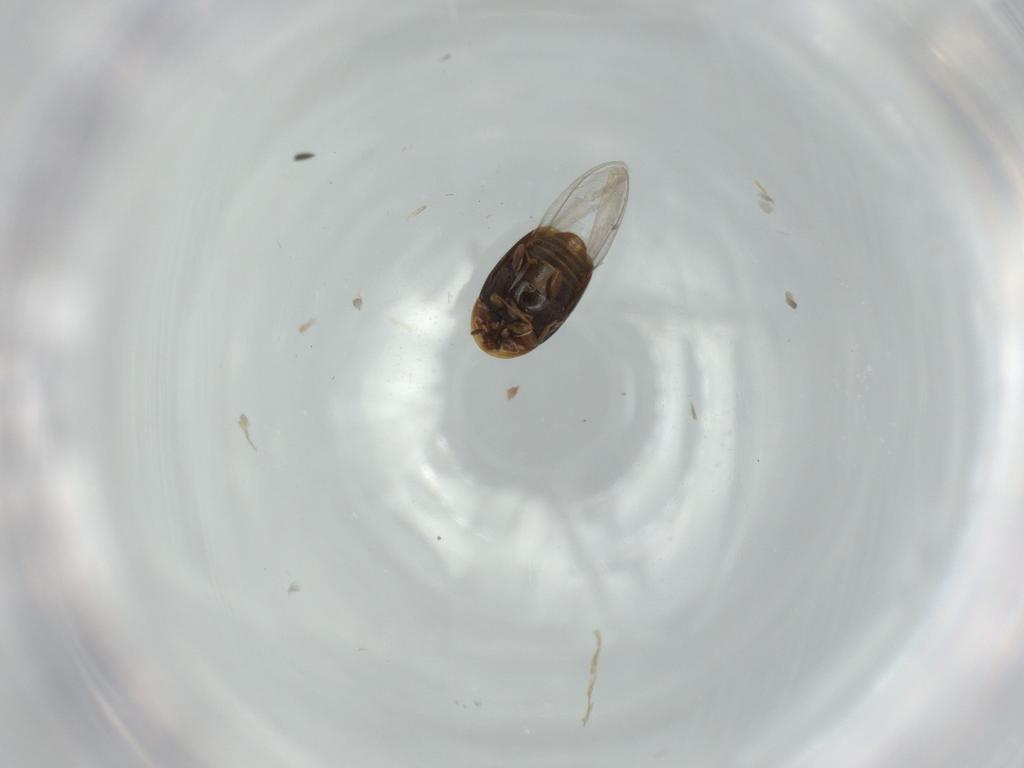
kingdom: Animalia
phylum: Arthropoda
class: Insecta
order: Coleoptera
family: Corylophidae
